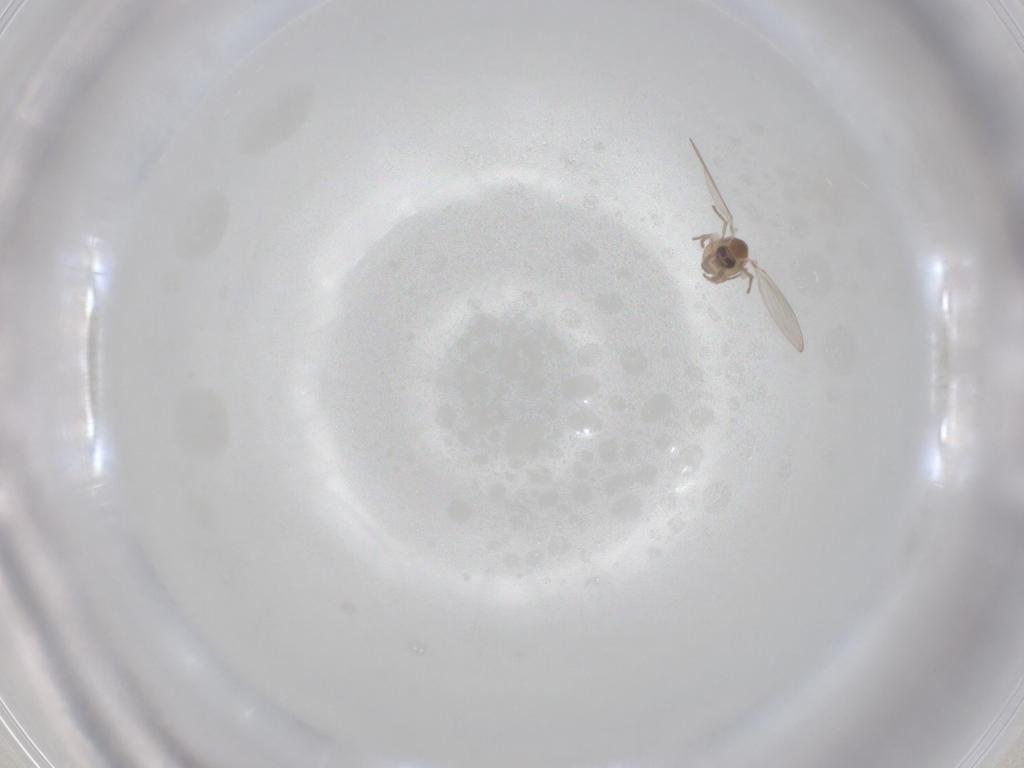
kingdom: Animalia
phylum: Arthropoda
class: Insecta
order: Diptera
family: Psychodidae
